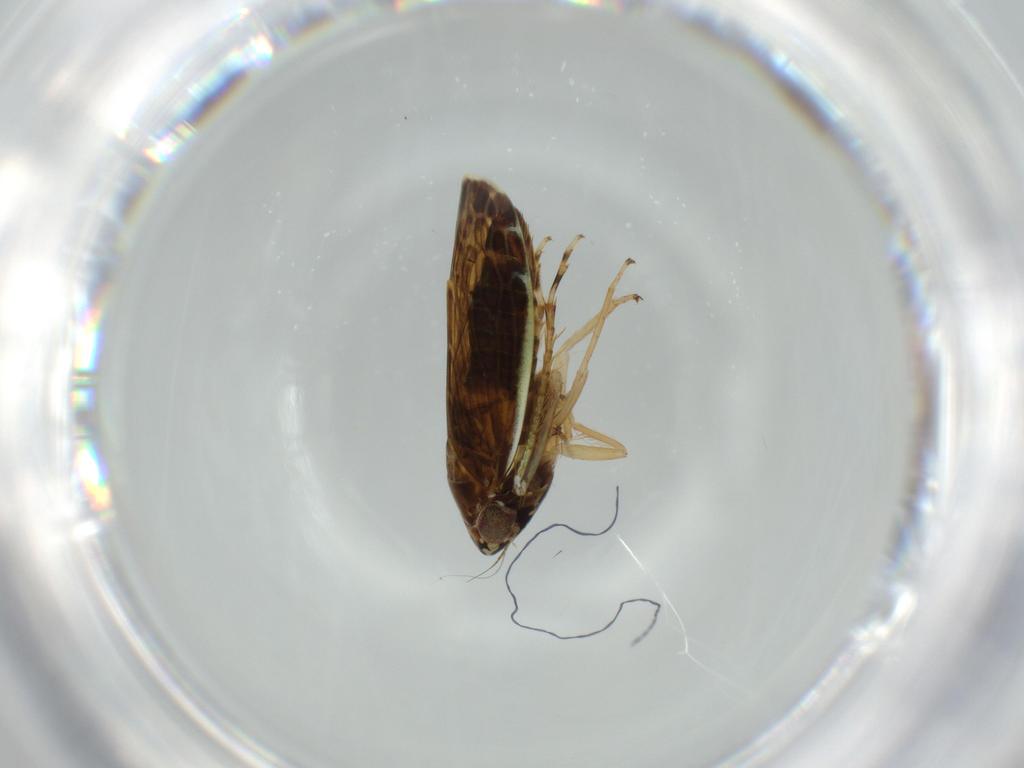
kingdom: Animalia
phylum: Arthropoda
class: Insecta
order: Hemiptera
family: Cicadellidae
